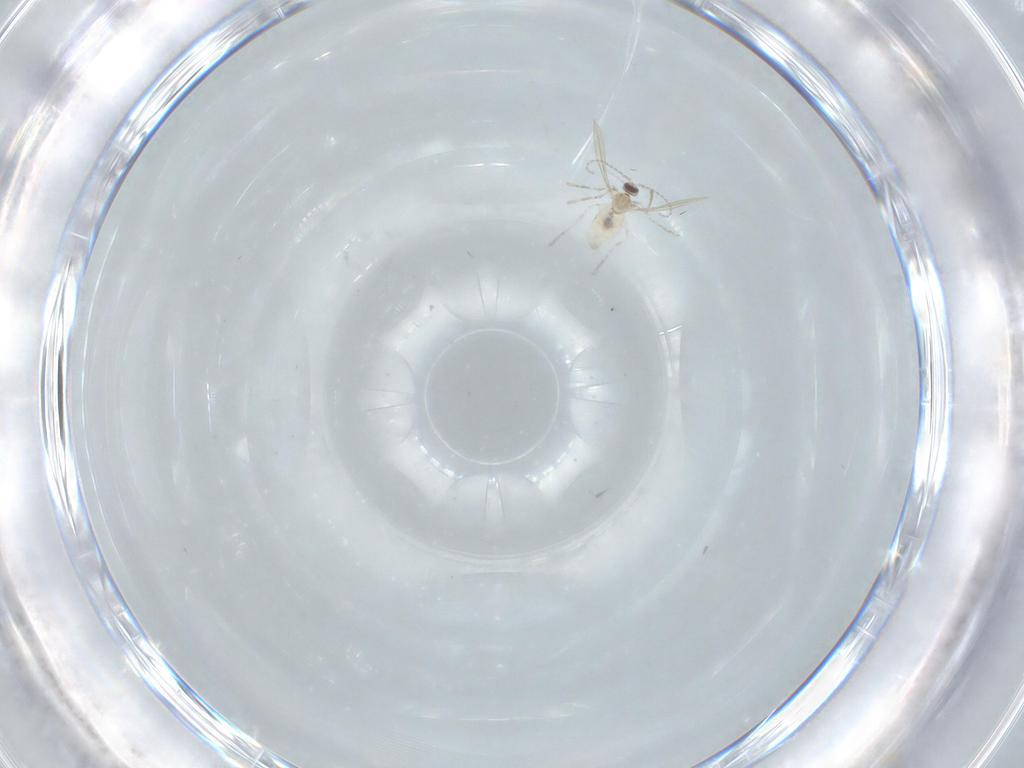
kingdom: Animalia
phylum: Arthropoda
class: Insecta
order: Diptera
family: Cecidomyiidae
